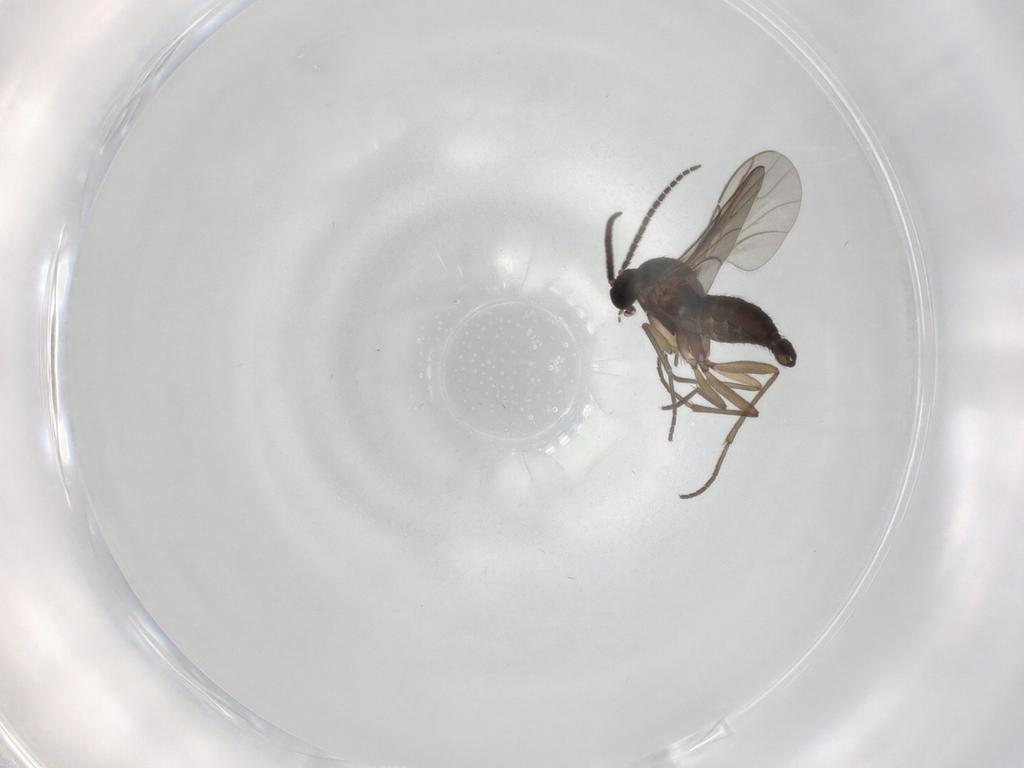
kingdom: Animalia
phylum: Arthropoda
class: Insecta
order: Diptera
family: Sciaridae
